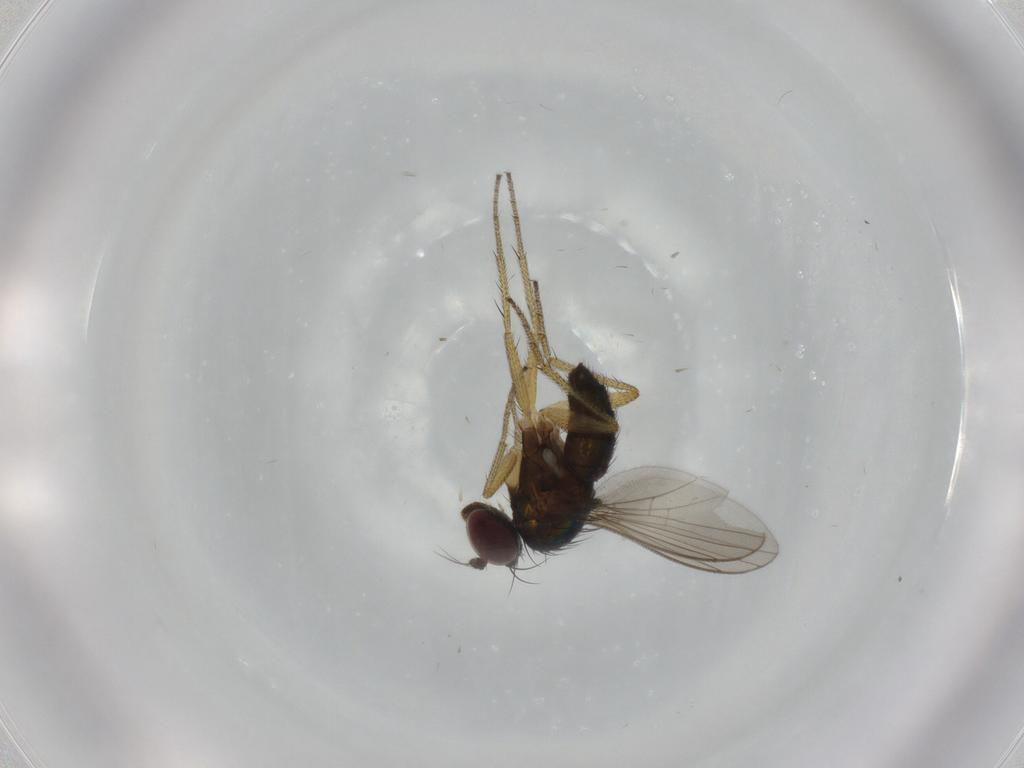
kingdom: Animalia
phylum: Arthropoda
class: Insecta
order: Diptera
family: Dolichopodidae
